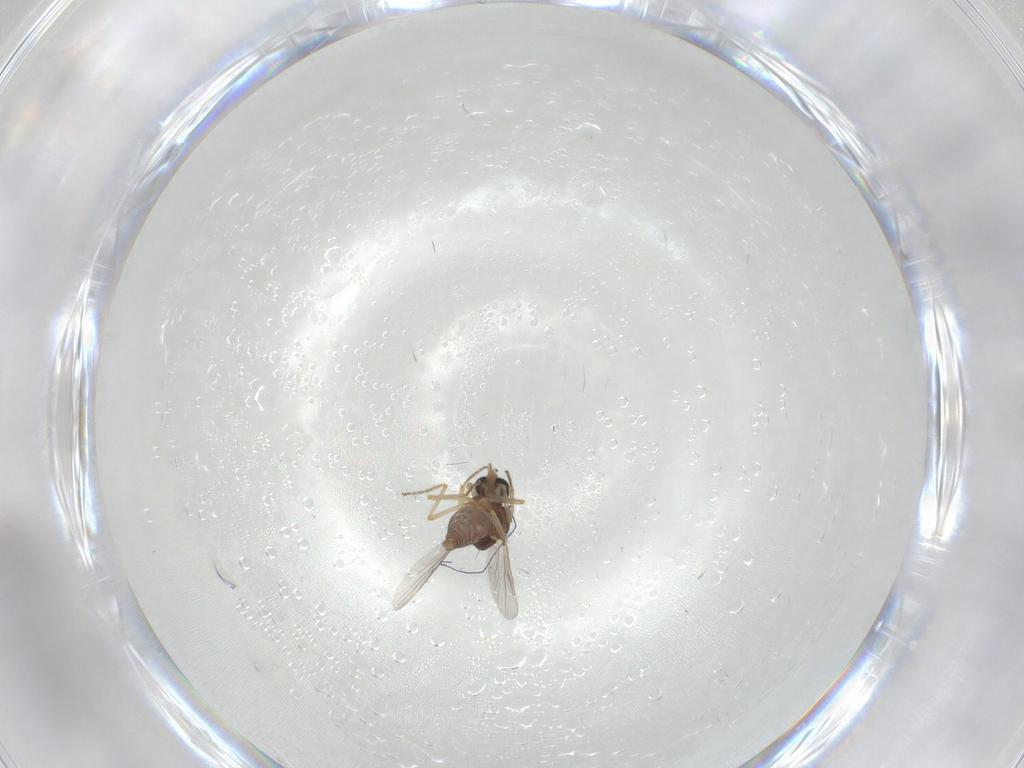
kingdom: Animalia
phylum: Arthropoda
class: Insecta
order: Diptera
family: Ceratopogonidae
